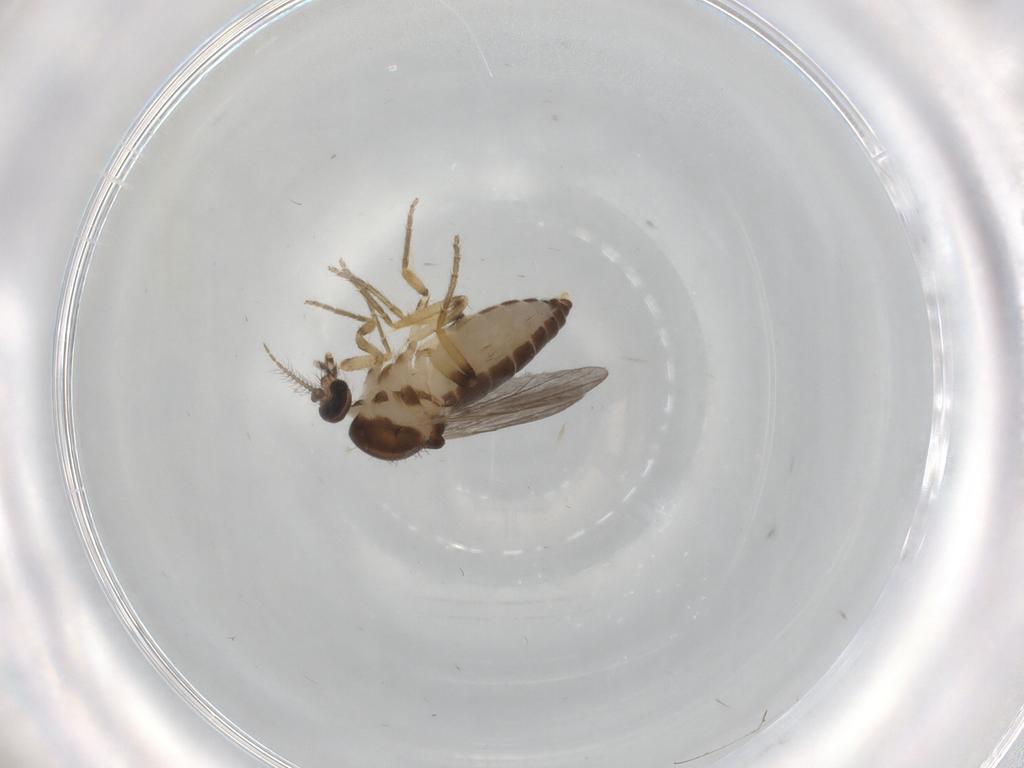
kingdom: Animalia
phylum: Arthropoda
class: Insecta
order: Diptera
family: Ceratopogonidae
